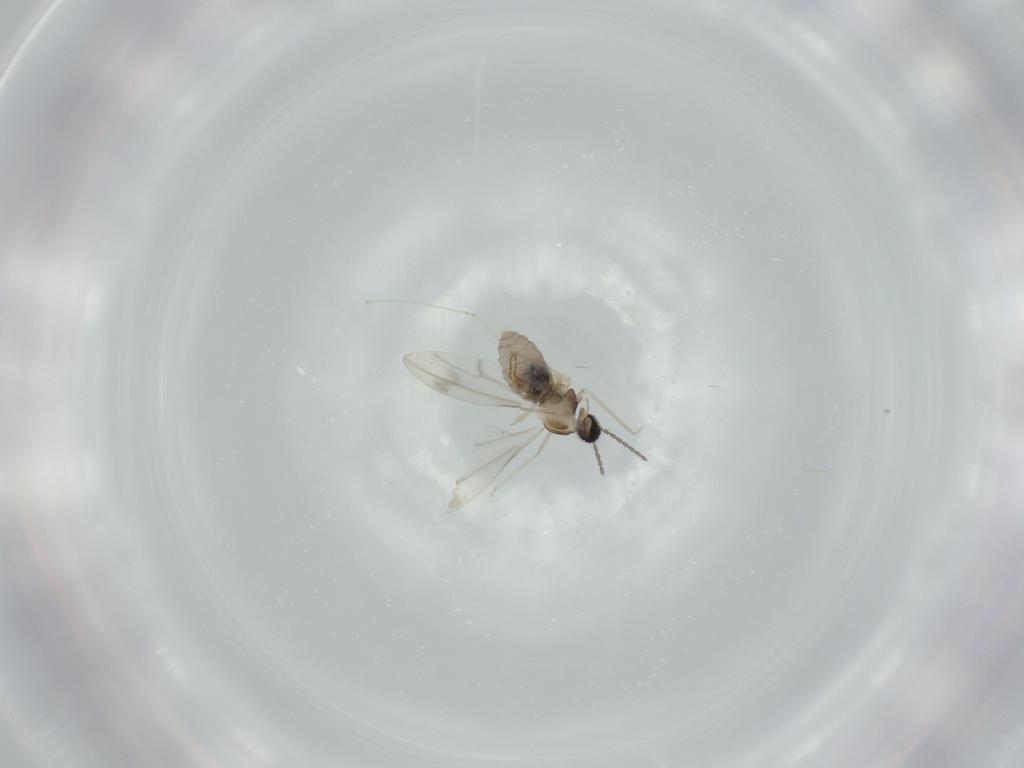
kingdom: Animalia
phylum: Arthropoda
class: Insecta
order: Diptera
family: Cecidomyiidae
